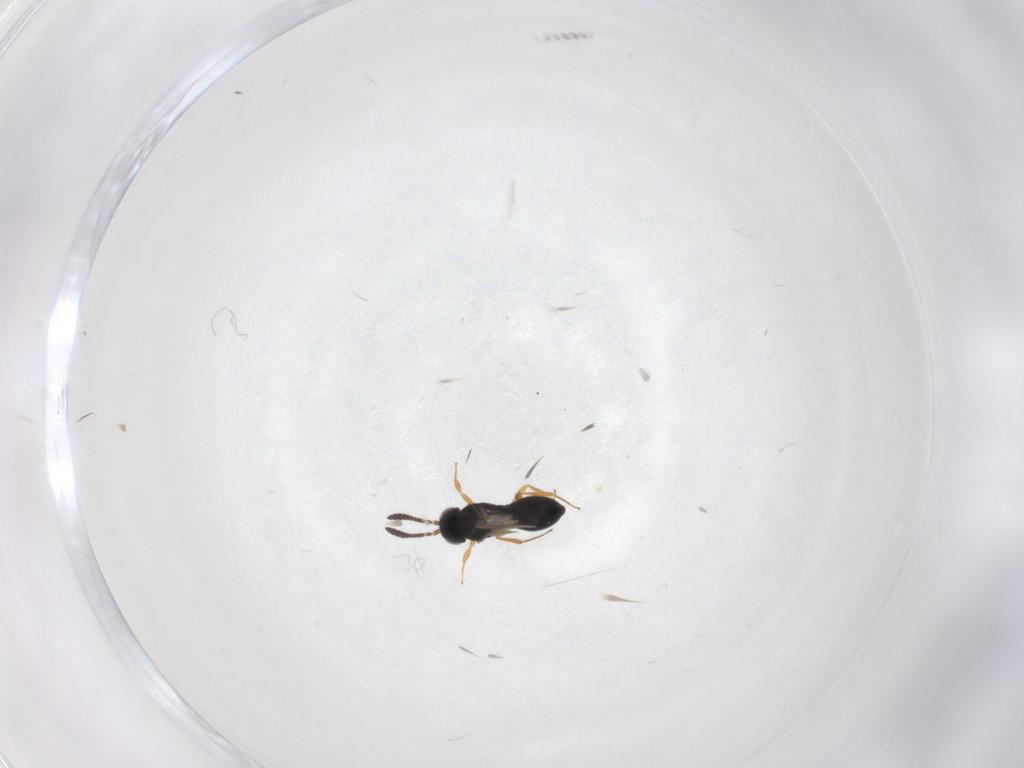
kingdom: Animalia
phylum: Arthropoda
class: Insecta
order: Hymenoptera
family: Scelionidae
